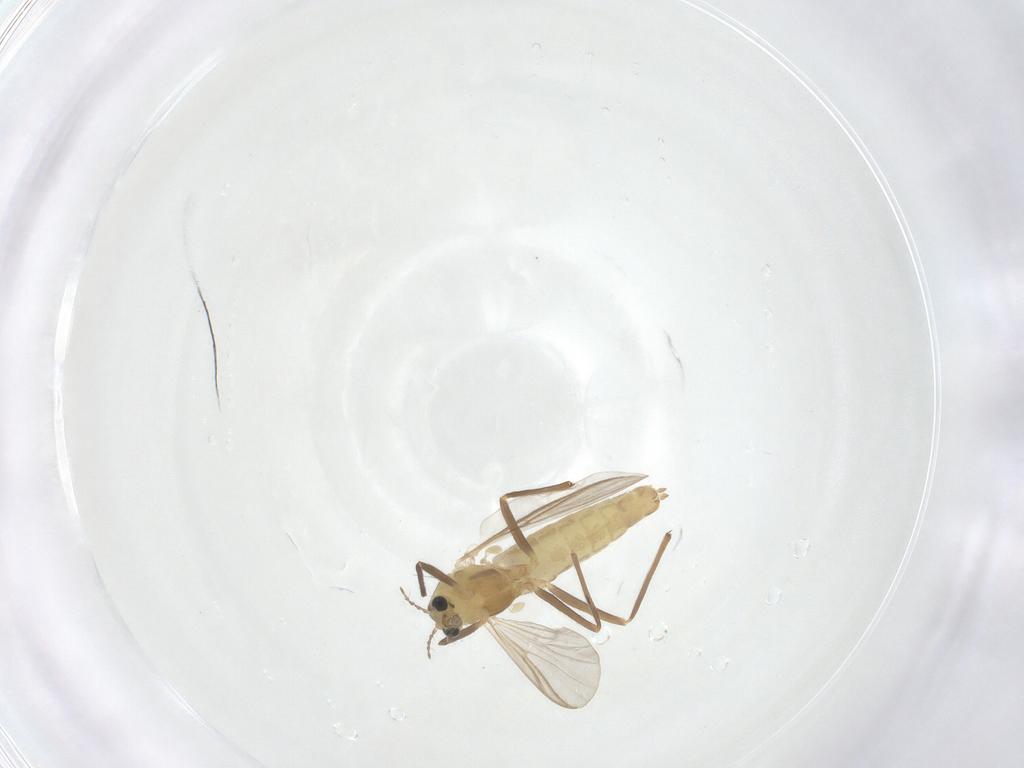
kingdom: Animalia
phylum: Arthropoda
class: Insecta
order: Diptera
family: Chironomidae
